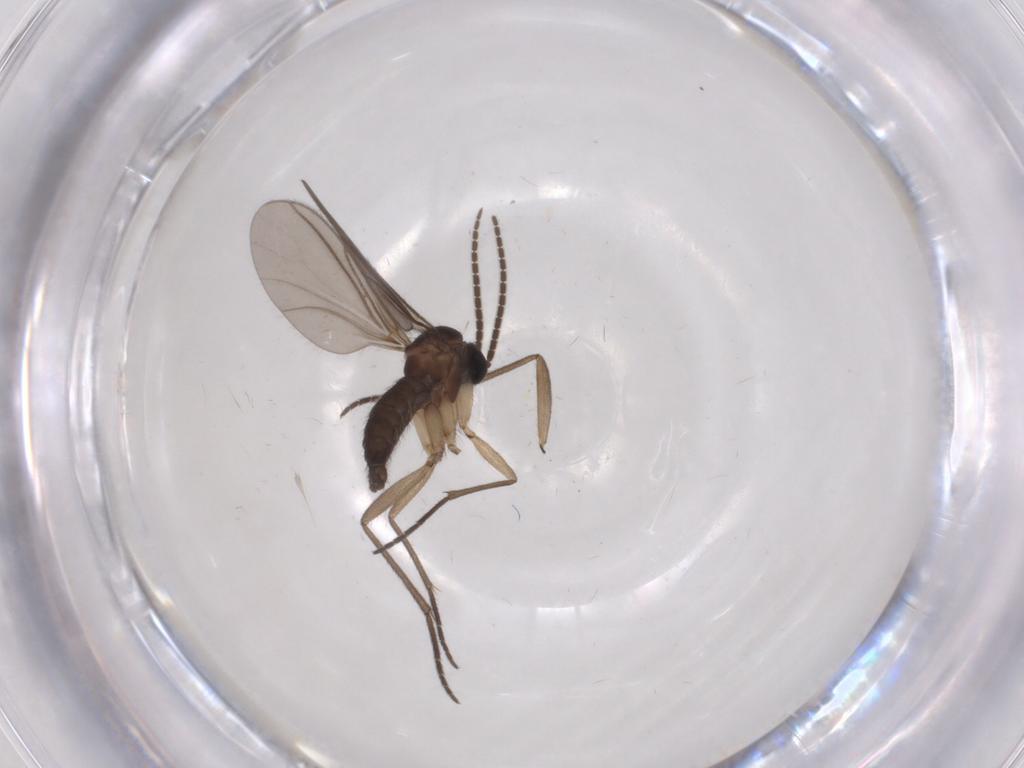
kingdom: Animalia
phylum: Arthropoda
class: Insecta
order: Diptera
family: Sciaridae
